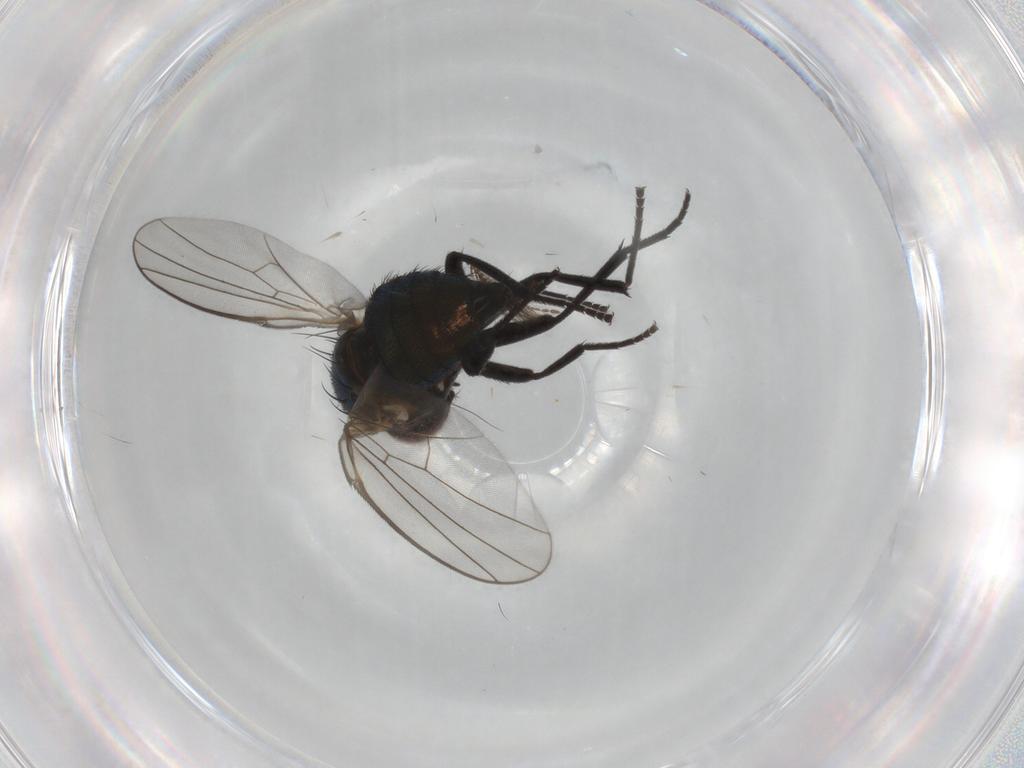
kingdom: Animalia
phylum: Arthropoda
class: Insecta
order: Diptera
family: Agromyzidae
